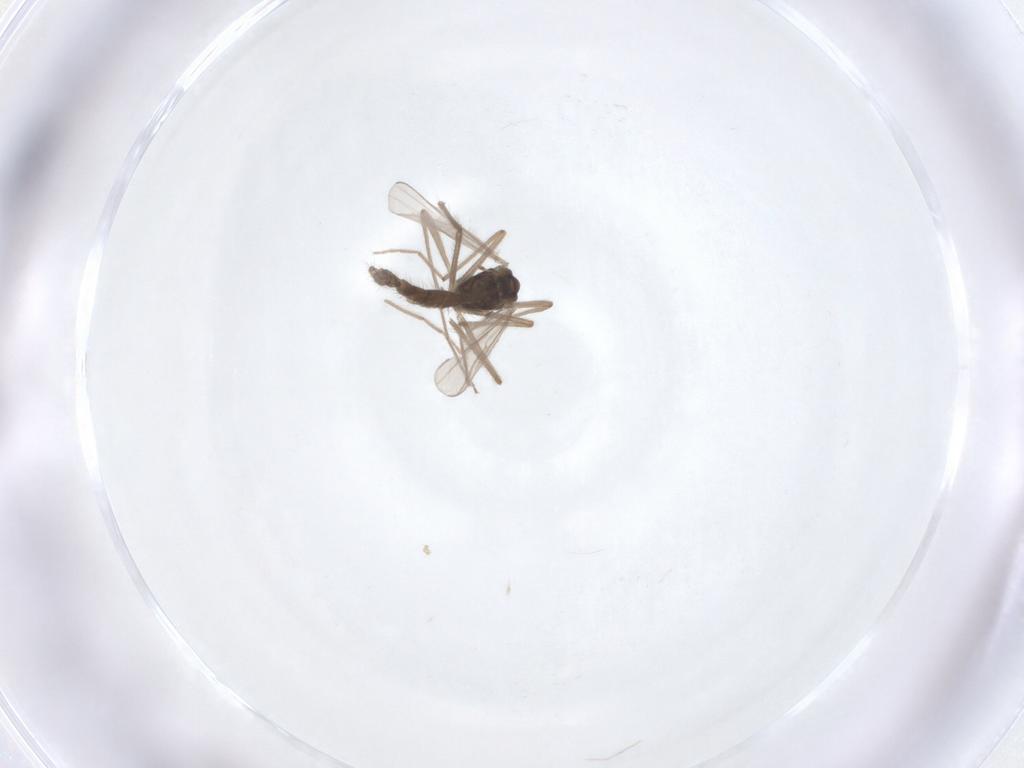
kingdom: Animalia
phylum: Arthropoda
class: Insecta
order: Diptera
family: Chironomidae
